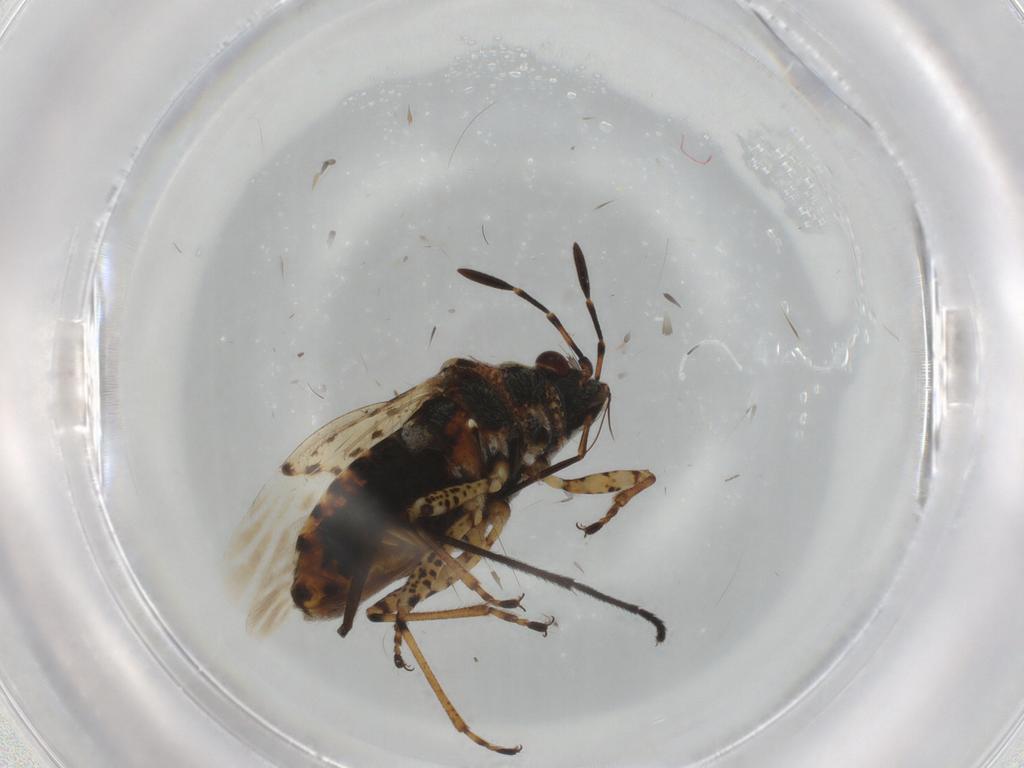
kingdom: Animalia
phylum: Arthropoda
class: Insecta
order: Hemiptera
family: Lygaeidae
